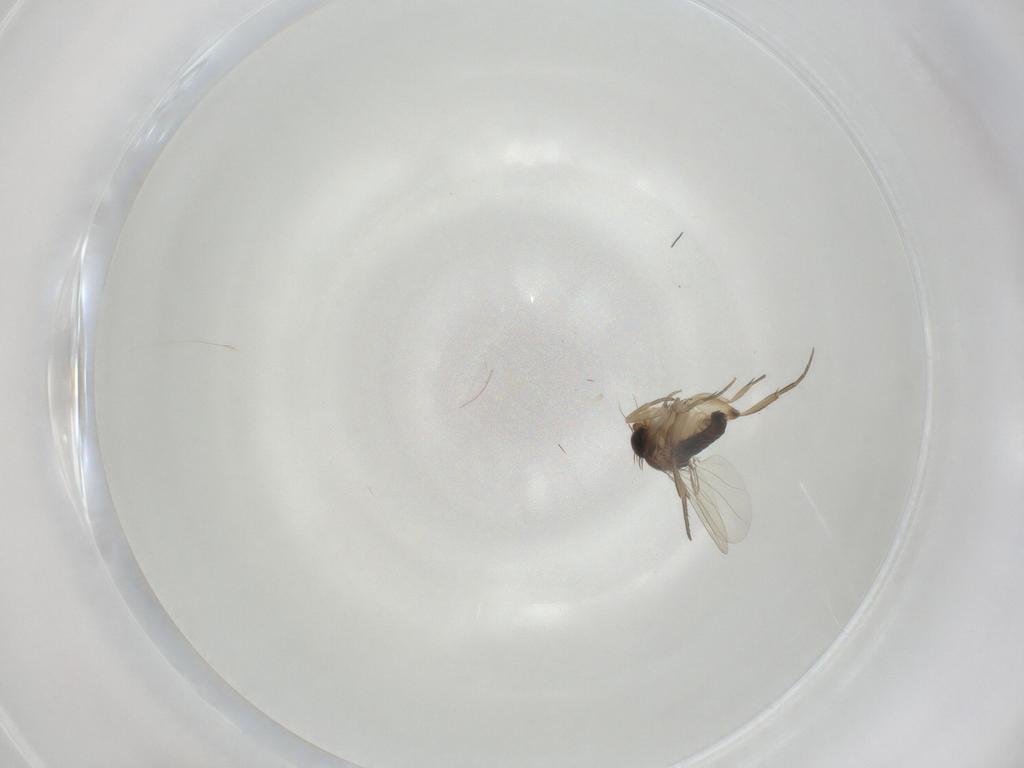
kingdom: Animalia
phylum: Arthropoda
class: Insecta
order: Diptera
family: Phoridae
